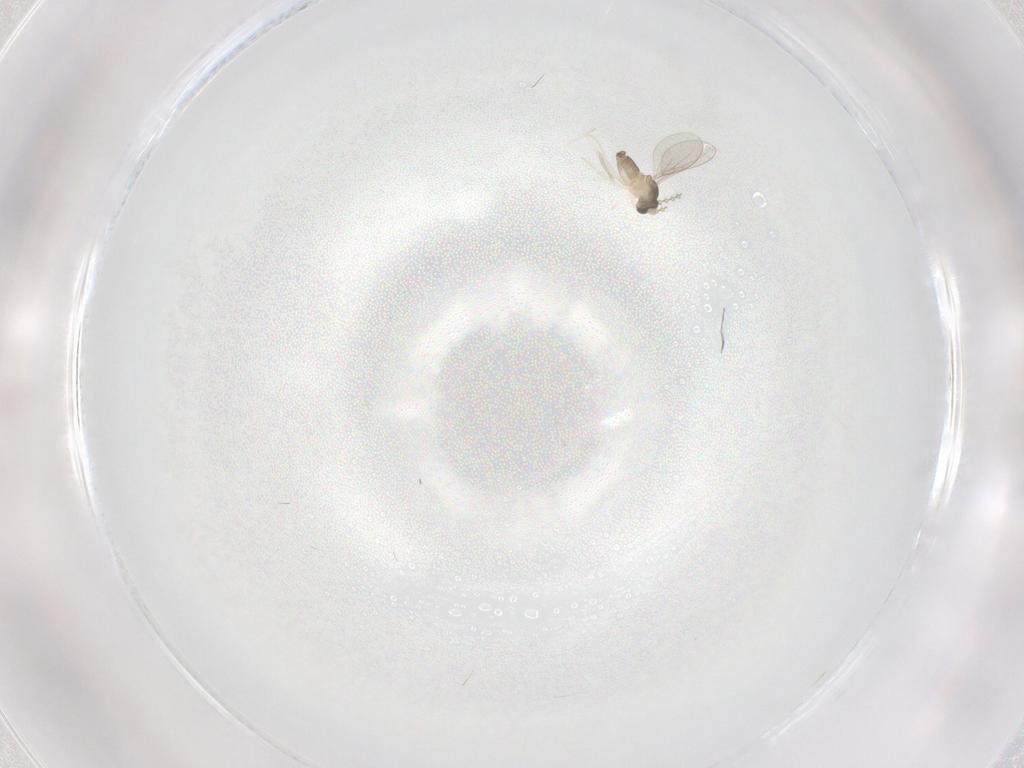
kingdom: Animalia
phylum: Arthropoda
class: Insecta
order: Diptera
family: Cecidomyiidae
